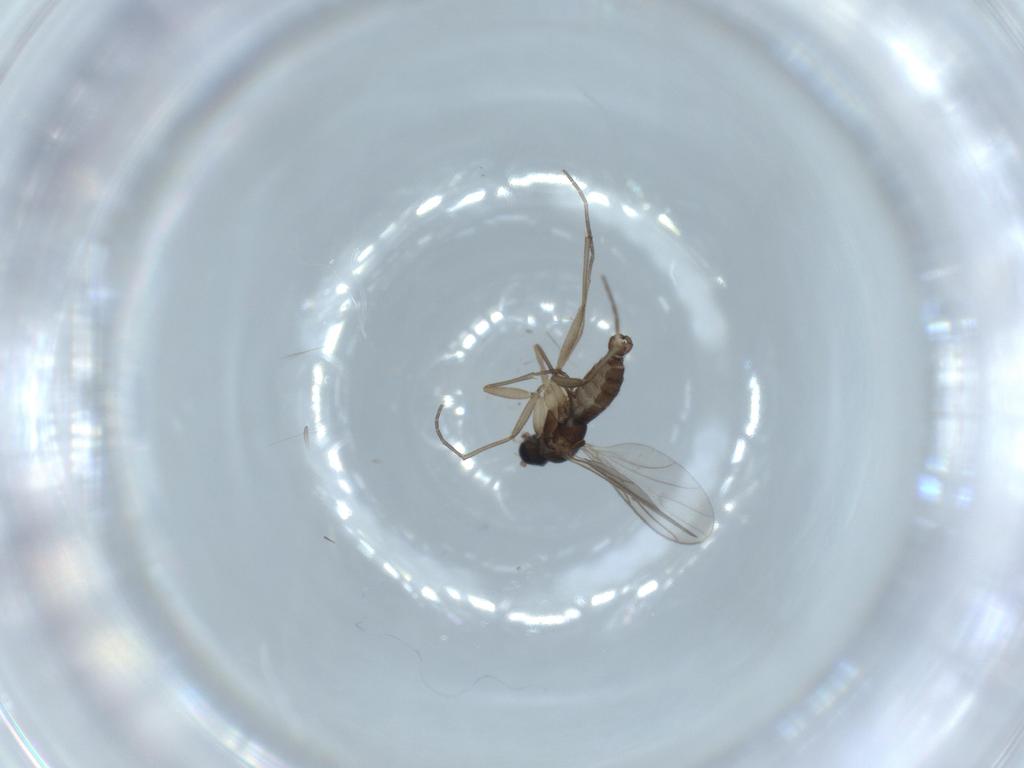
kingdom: Animalia
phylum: Arthropoda
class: Insecta
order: Diptera
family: Sciaridae
